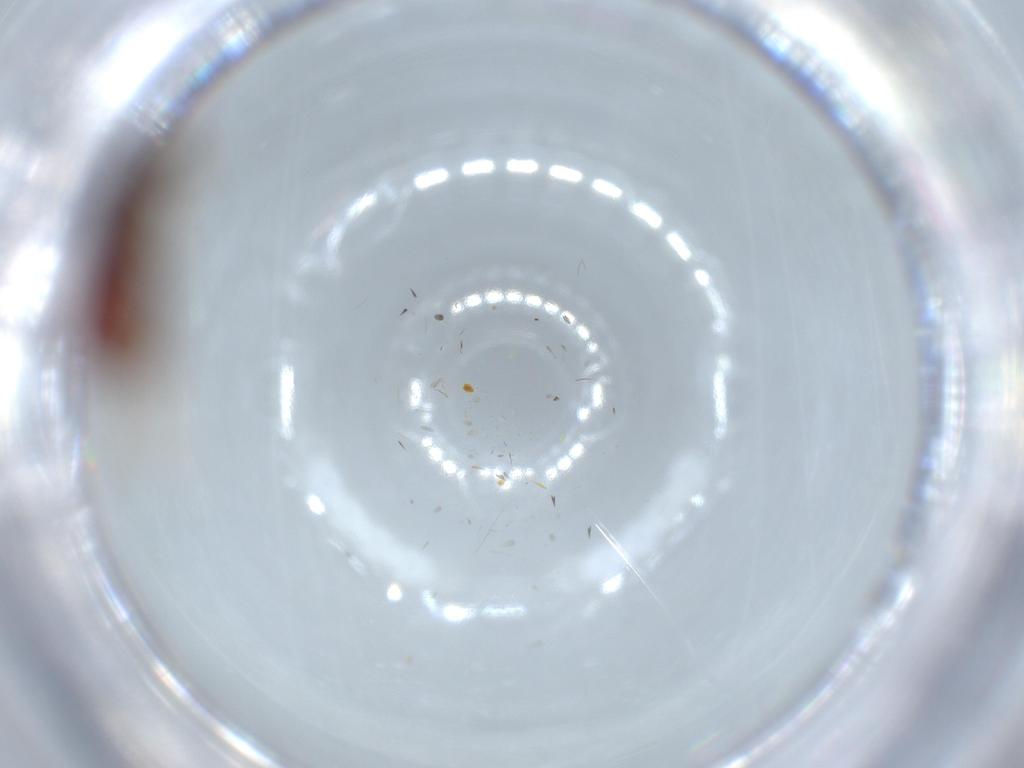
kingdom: Animalia
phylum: Arthropoda
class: Insecta
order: Coleoptera
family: Staphylinidae
